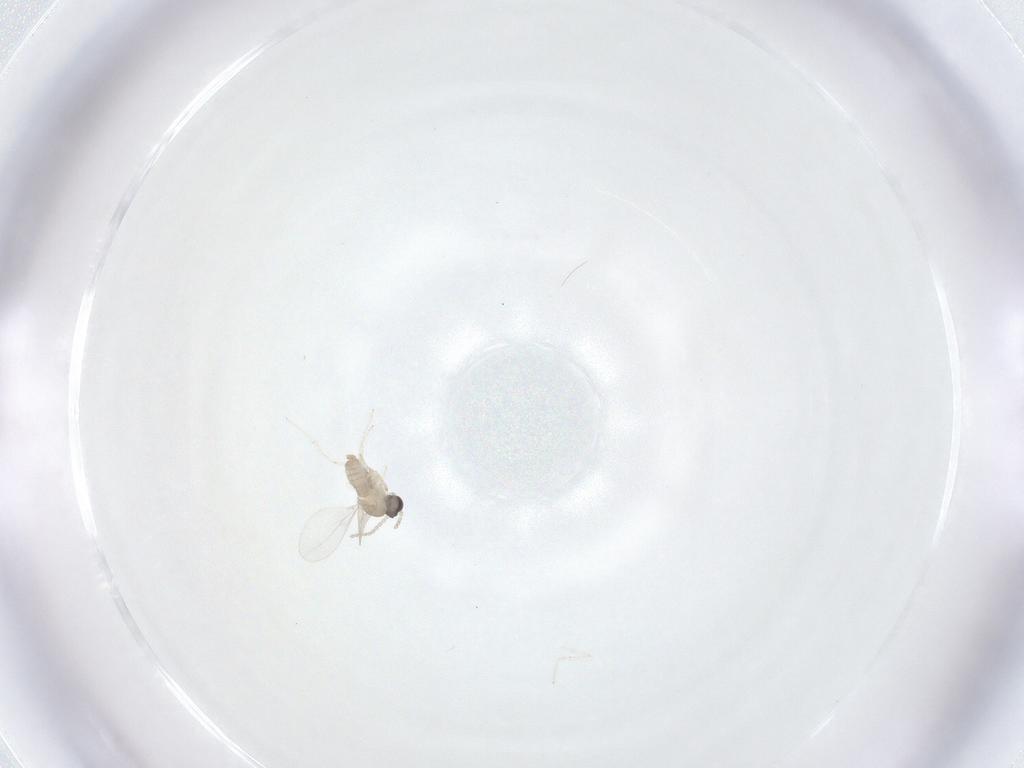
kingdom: Animalia
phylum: Arthropoda
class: Insecta
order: Diptera
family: Cecidomyiidae
